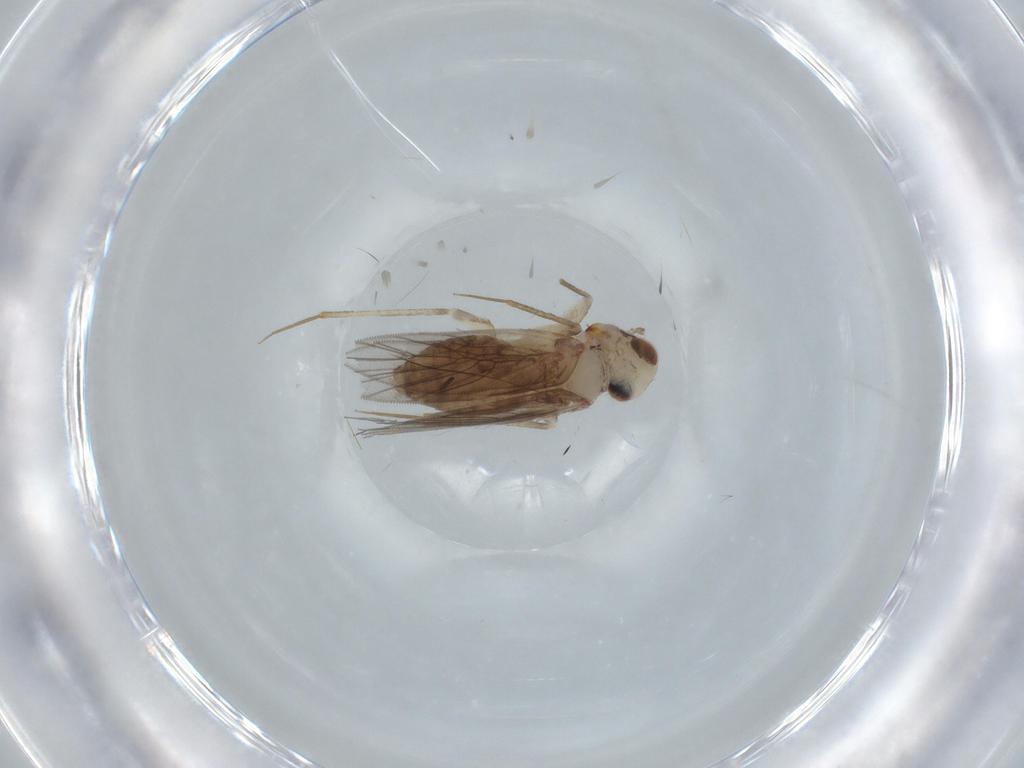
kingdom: Animalia
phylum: Arthropoda
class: Insecta
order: Psocodea
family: Lepidopsocidae
